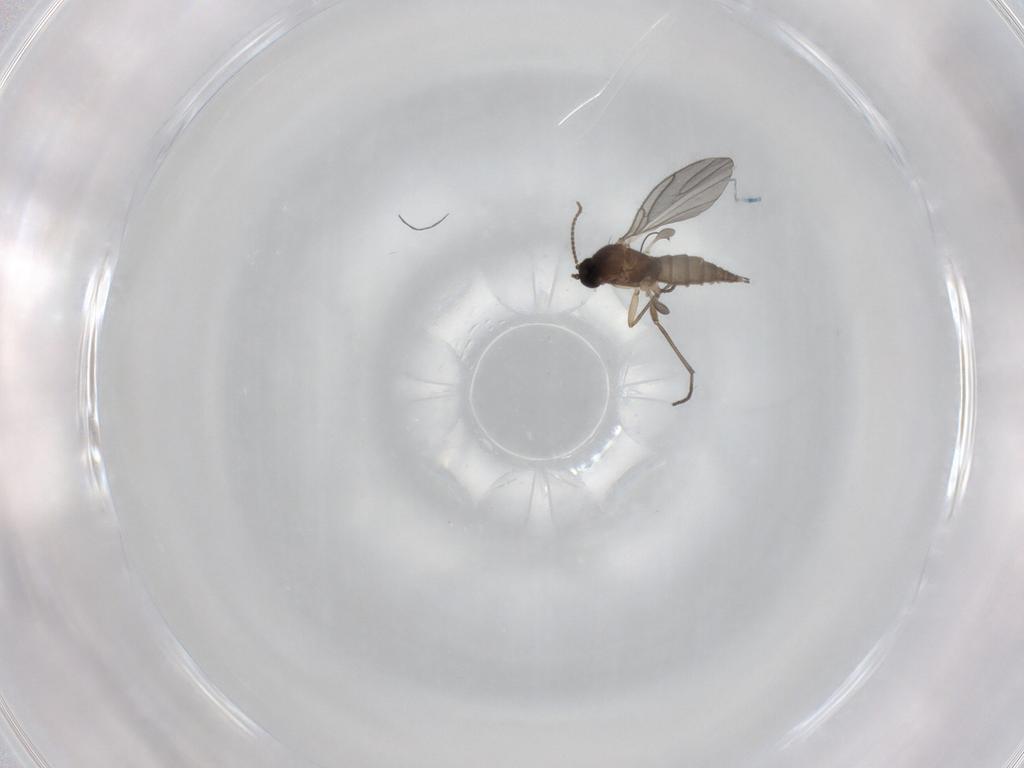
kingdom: Animalia
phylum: Arthropoda
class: Insecta
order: Diptera
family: Sciaridae
